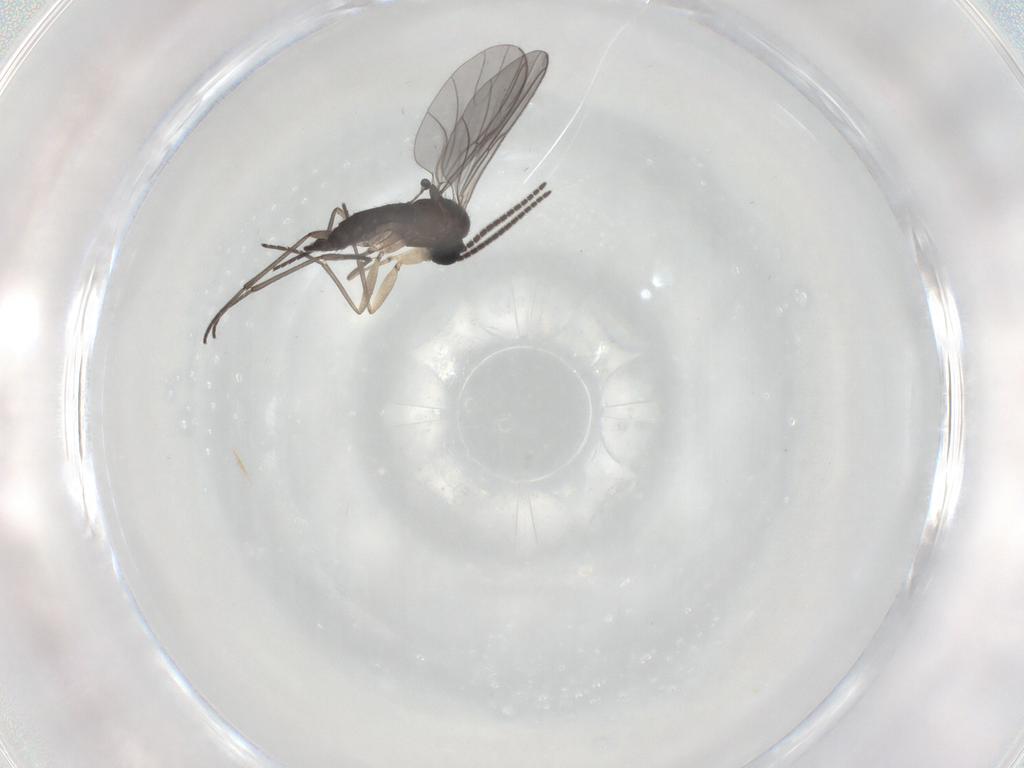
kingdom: Animalia
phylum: Arthropoda
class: Insecta
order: Diptera
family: Sciaridae
